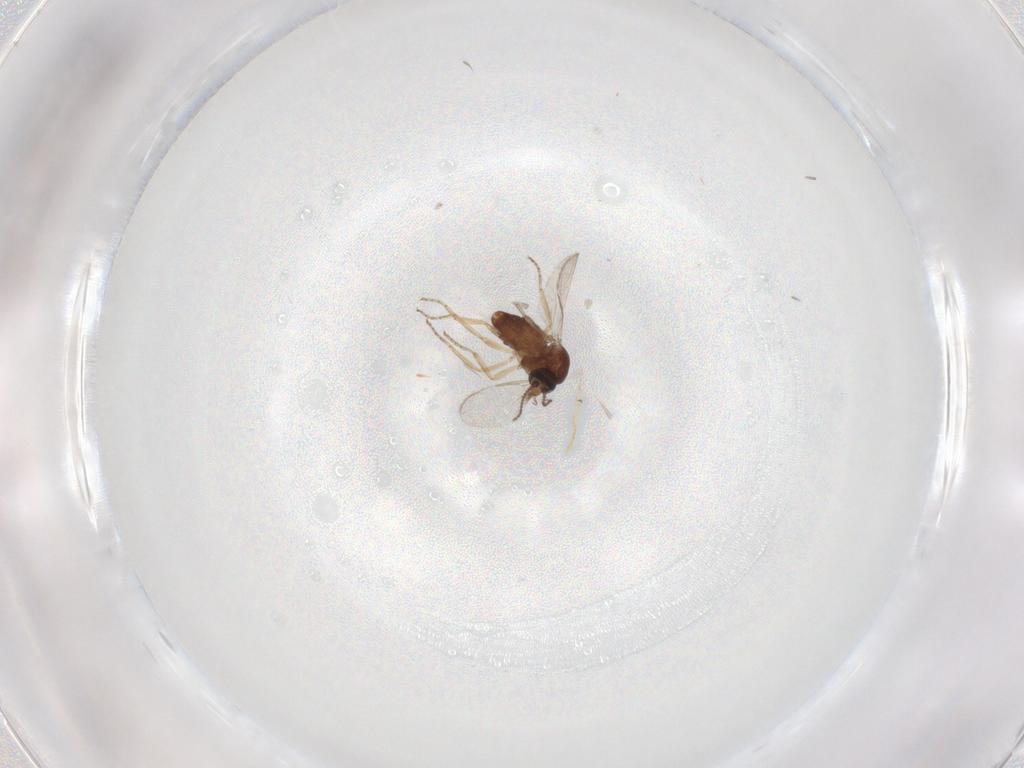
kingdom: Animalia
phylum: Arthropoda
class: Insecta
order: Diptera
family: Ceratopogonidae
